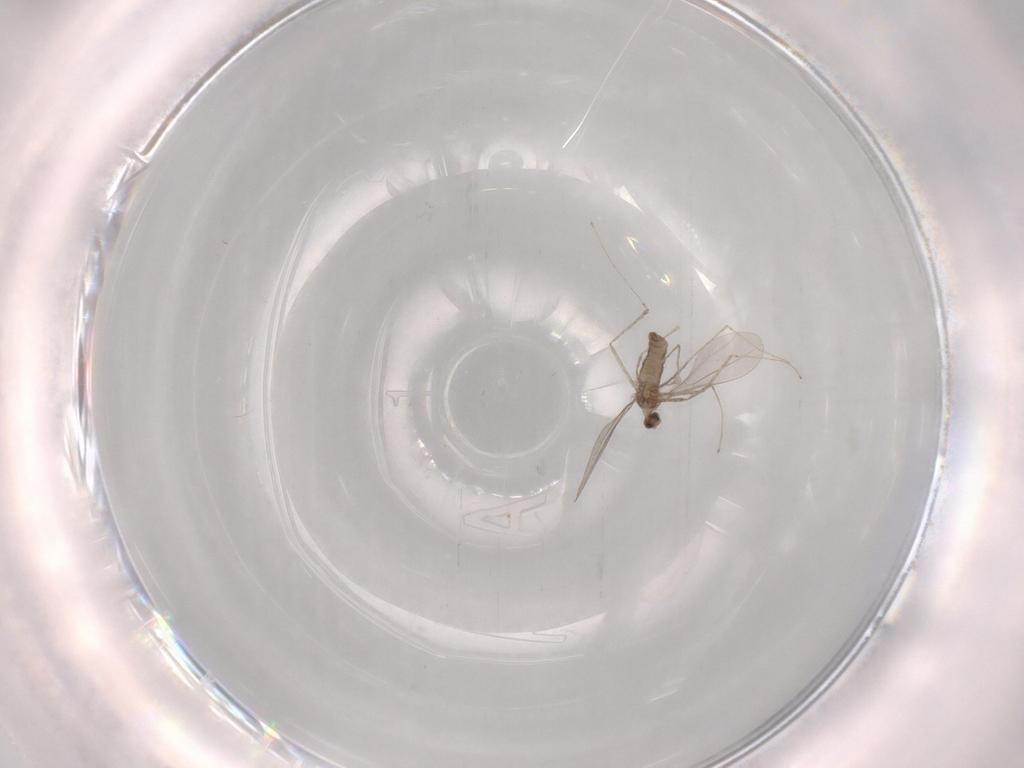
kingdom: Animalia
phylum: Arthropoda
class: Insecta
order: Diptera
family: Cecidomyiidae
